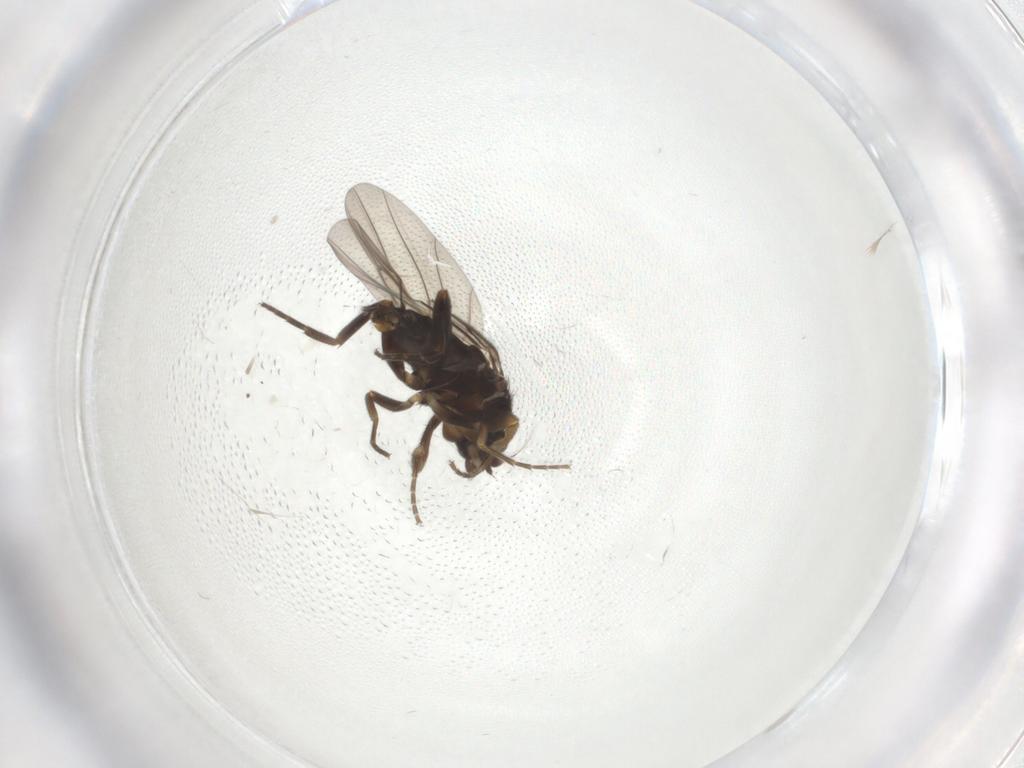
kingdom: Animalia
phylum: Arthropoda
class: Insecta
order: Diptera
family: Phoridae
